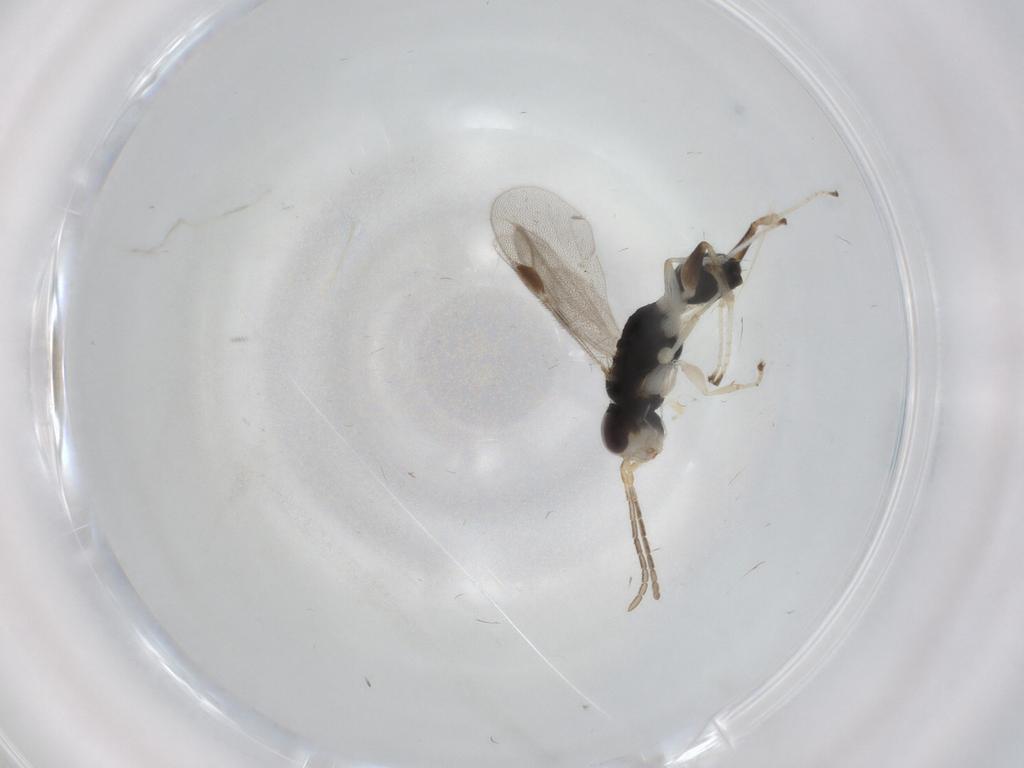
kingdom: Animalia
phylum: Arthropoda
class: Insecta
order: Hymenoptera
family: Dryinidae
